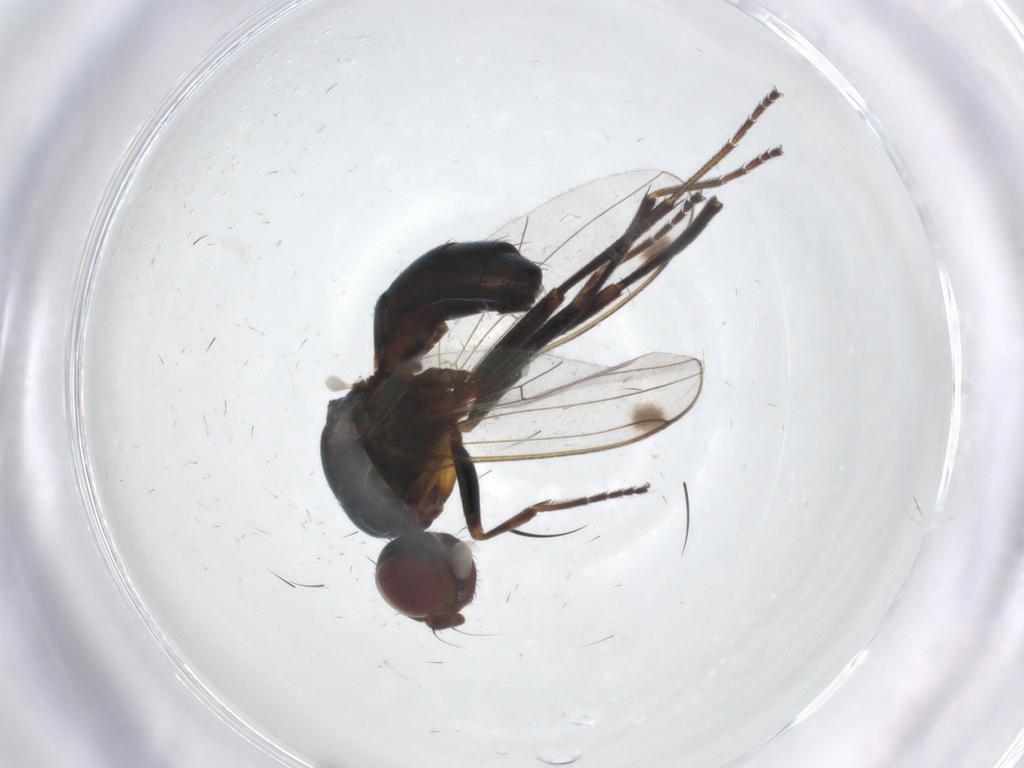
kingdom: Animalia
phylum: Arthropoda
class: Insecta
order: Diptera
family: Sepsidae
